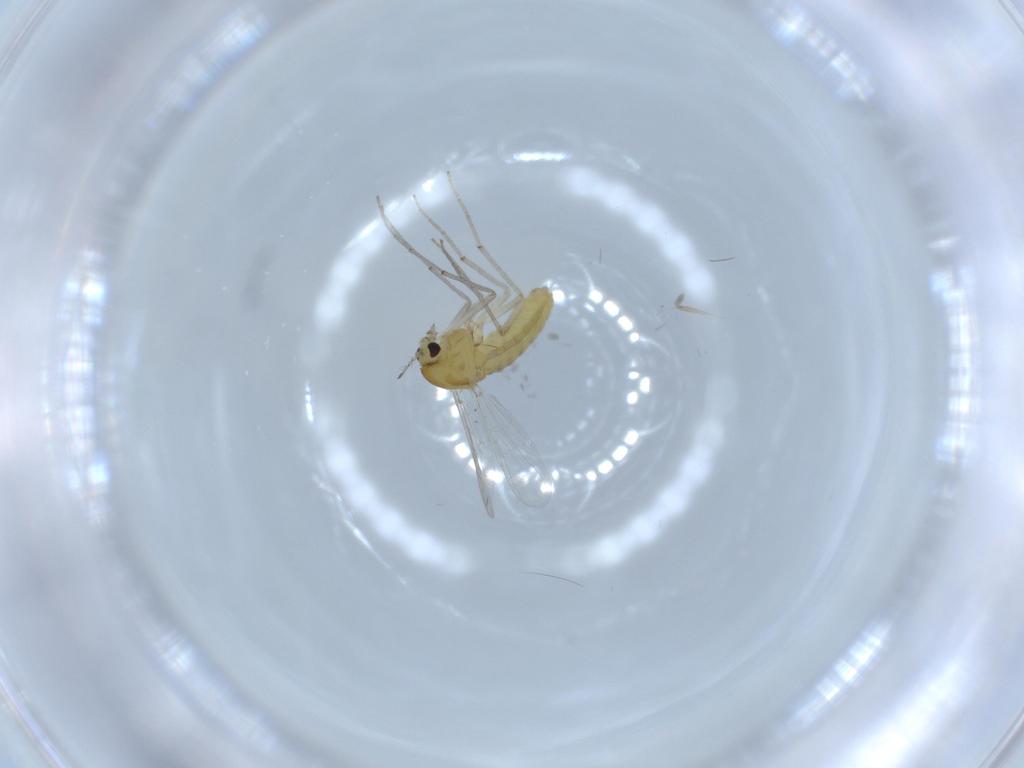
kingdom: Animalia
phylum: Arthropoda
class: Insecta
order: Diptera
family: Chironomidae
